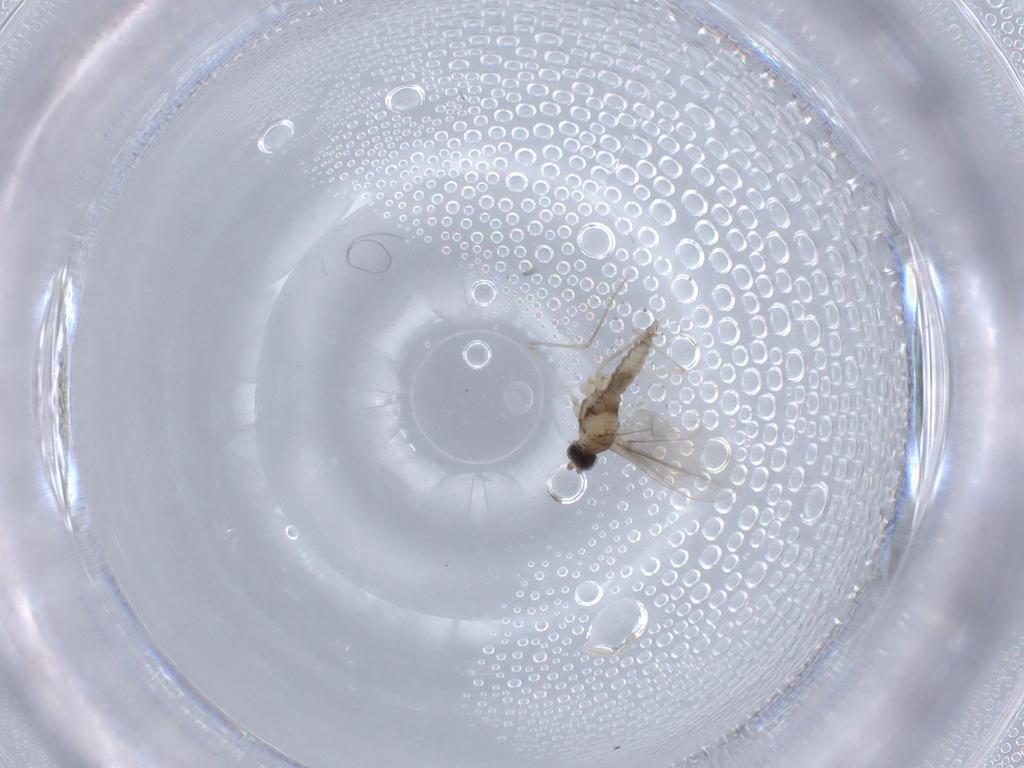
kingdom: Animalia
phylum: Arthropoda
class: Insecta
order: Diptera
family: Cecidomyiidae
